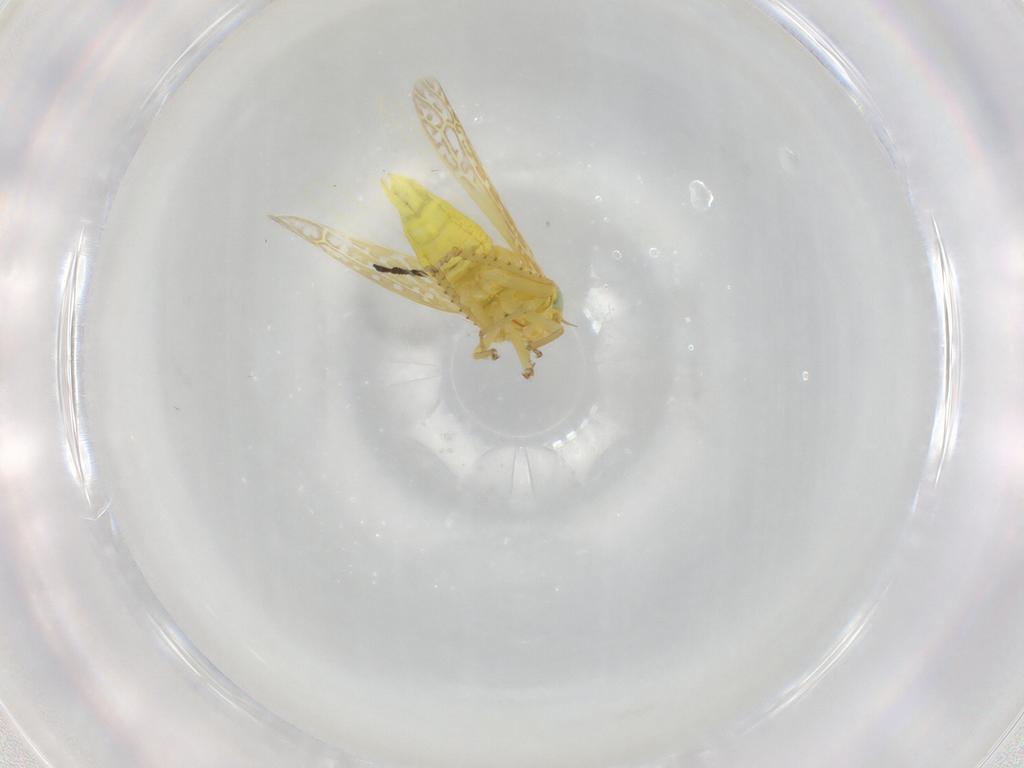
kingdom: Animalia
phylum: Arthropoda
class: Insecta
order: Hemiptera
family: Cicadellidae
